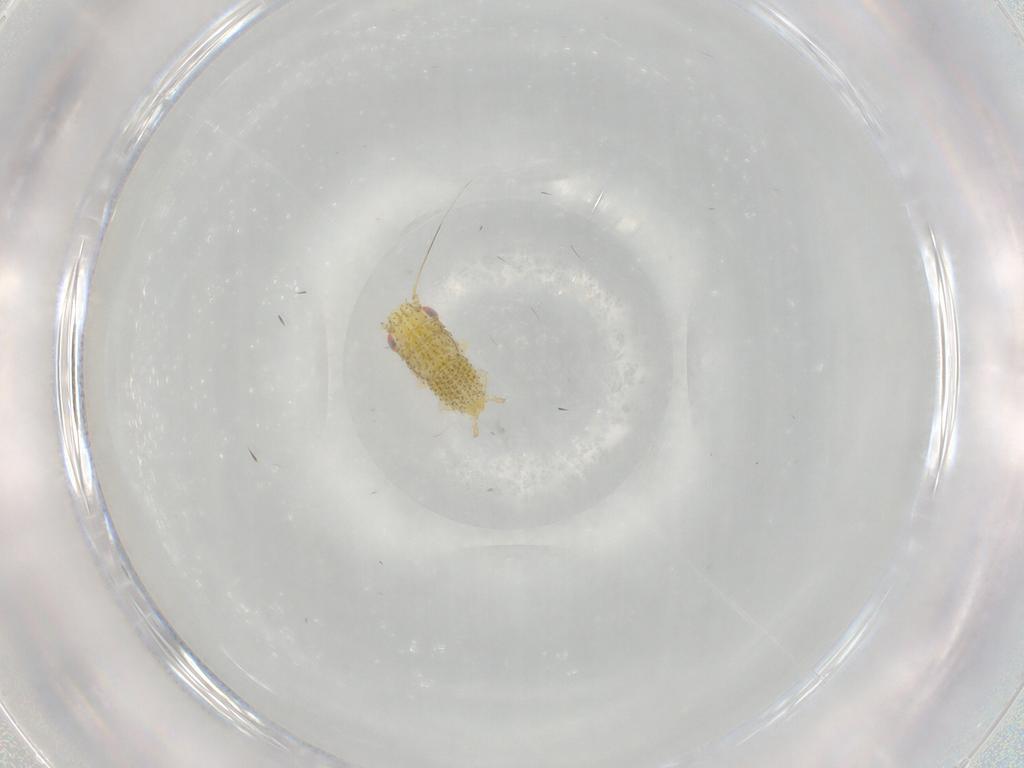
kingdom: Animalia
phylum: Arthropoda
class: Insecta
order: Hemiptera
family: Cicadellidae
